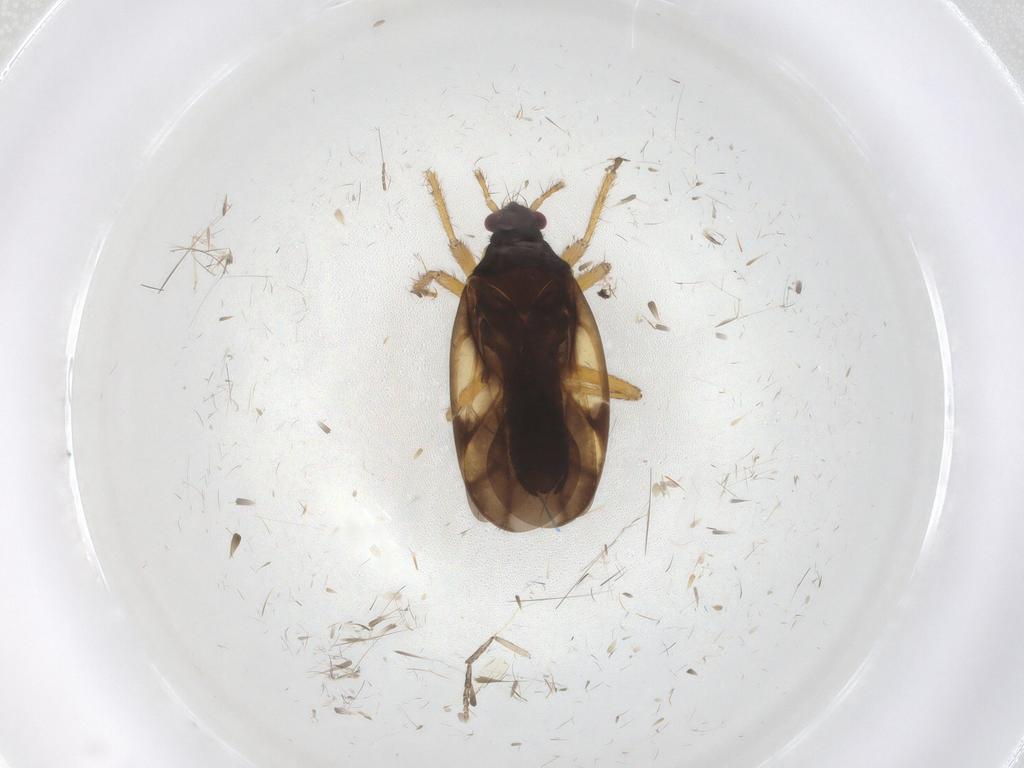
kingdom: Animalia
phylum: Arthropoda
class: Insecta
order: Hemiptera
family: Ceratocombidae
